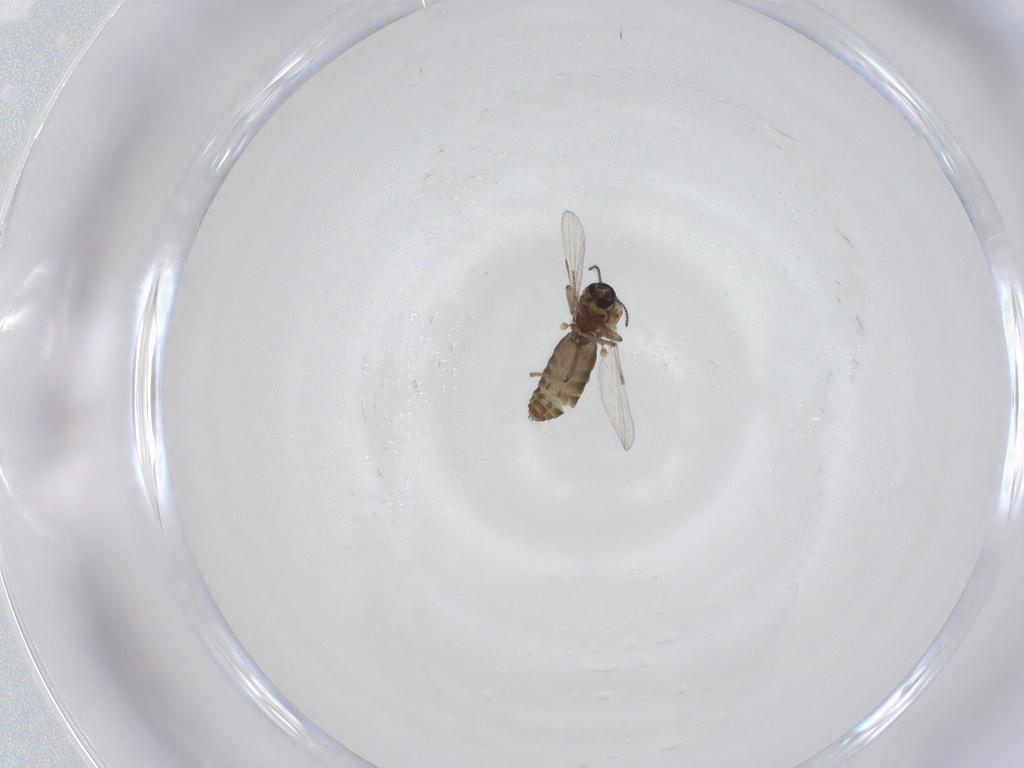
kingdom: Animalia
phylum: Arthropoda
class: Insecta
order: Diptera
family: Ceratopogonidae
